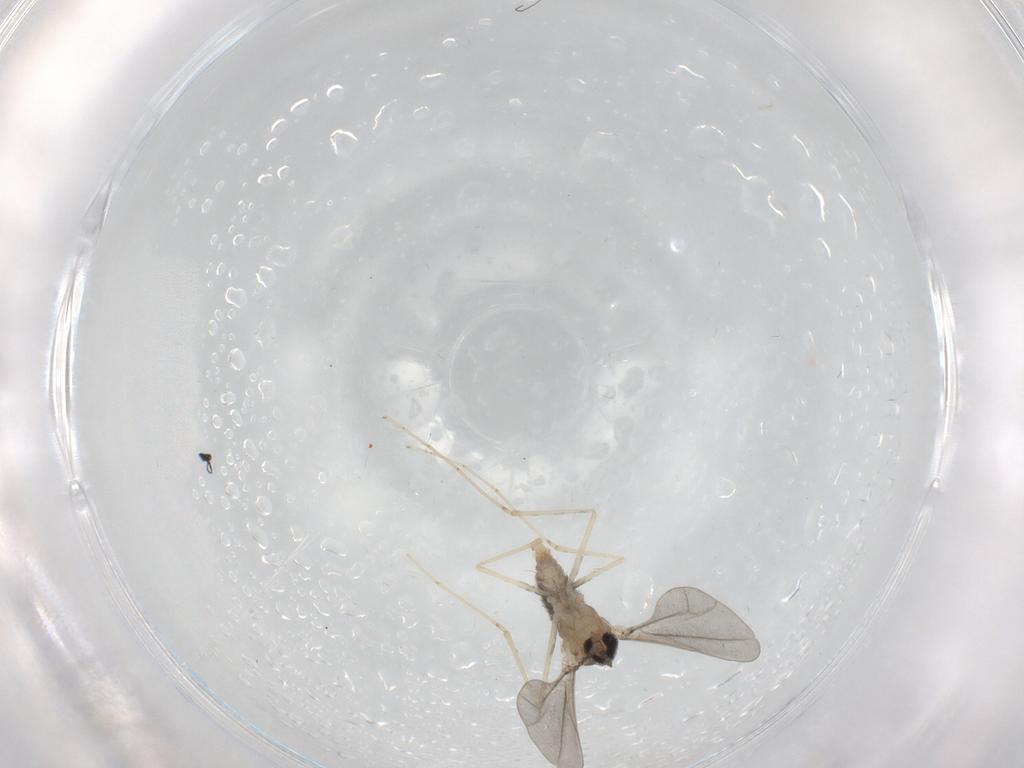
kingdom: Animalia
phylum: Arthropoda
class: Insecta
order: Diptera
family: Cecidomyiidae
